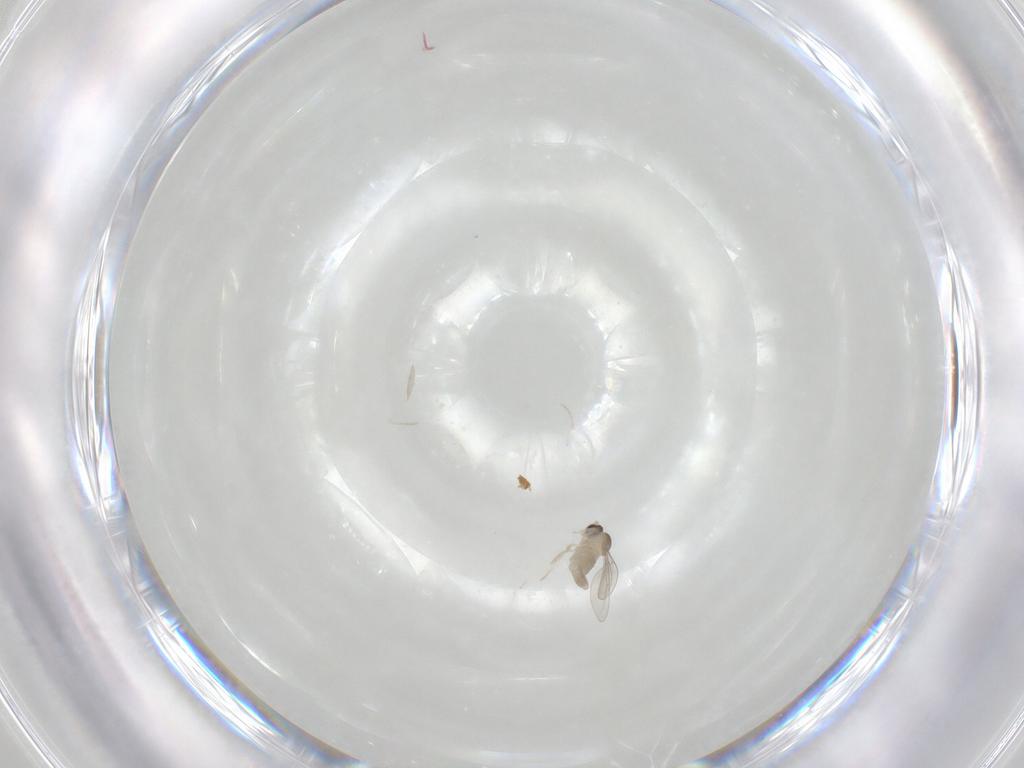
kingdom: Animalia
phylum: Arthropoda
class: Insecta
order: Diptera
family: Cecidomyiidae
